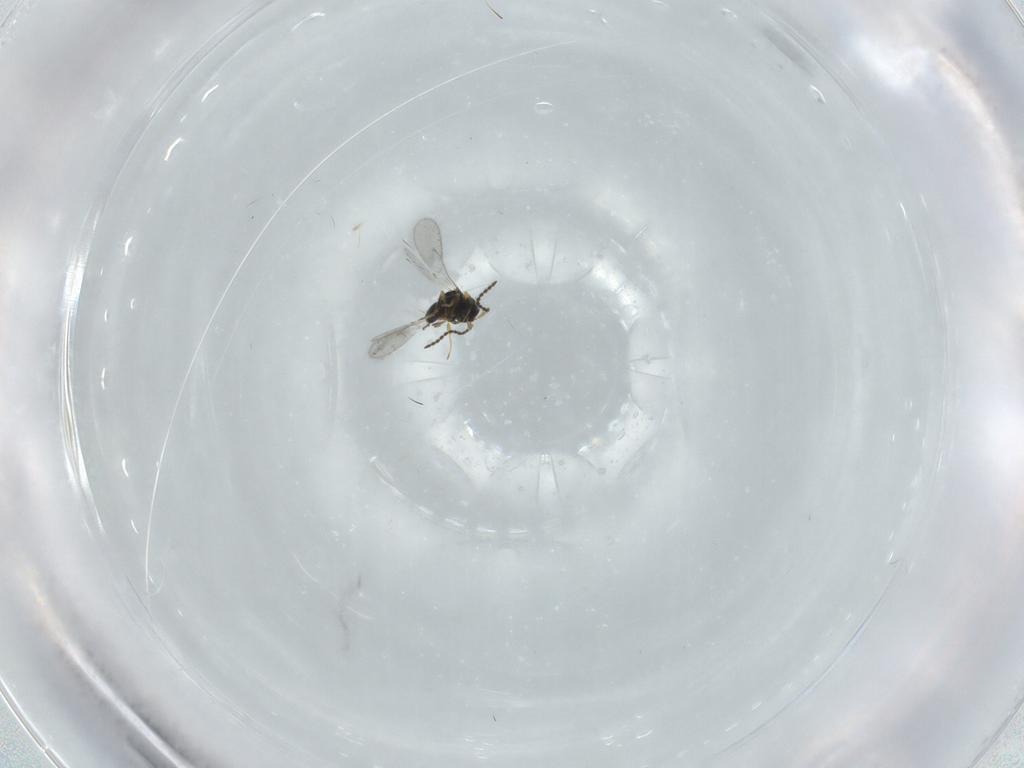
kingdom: Animalia
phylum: Arthropoda
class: Insecta
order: Hymenoptera
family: Scelionidae
